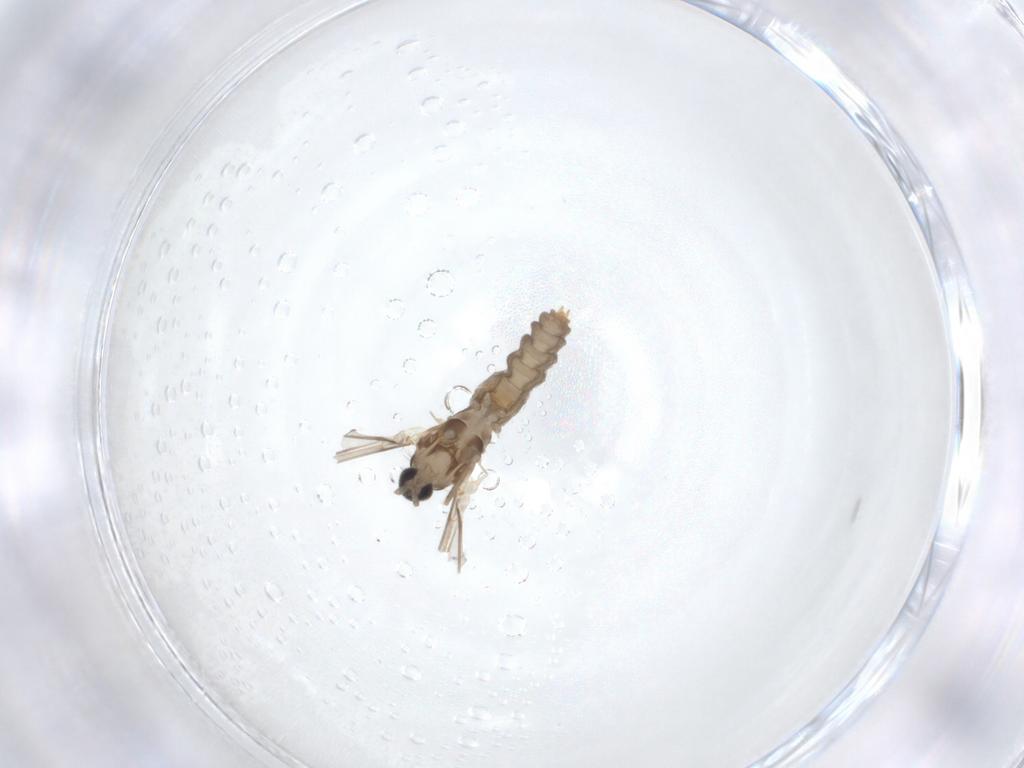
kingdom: Animalia
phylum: Arthropoda
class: Insecta
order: Diptera
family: Cecidomyiidae
